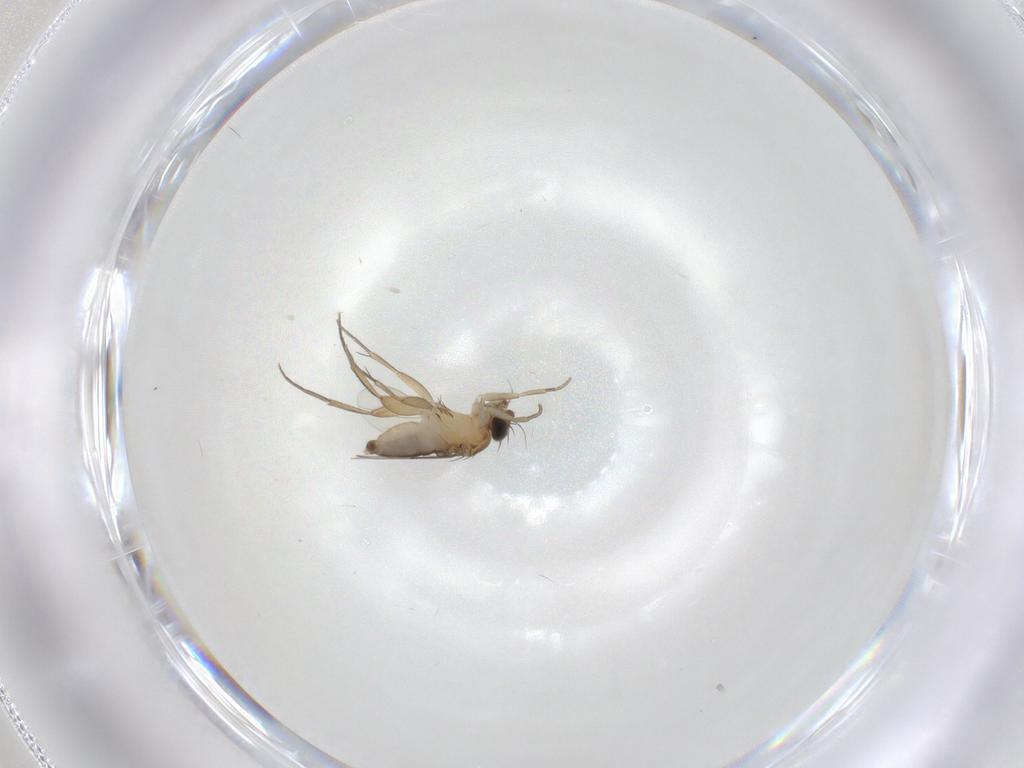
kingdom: Animalia
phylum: Arthropoda
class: Insecta
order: Diptera
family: Phoridae
